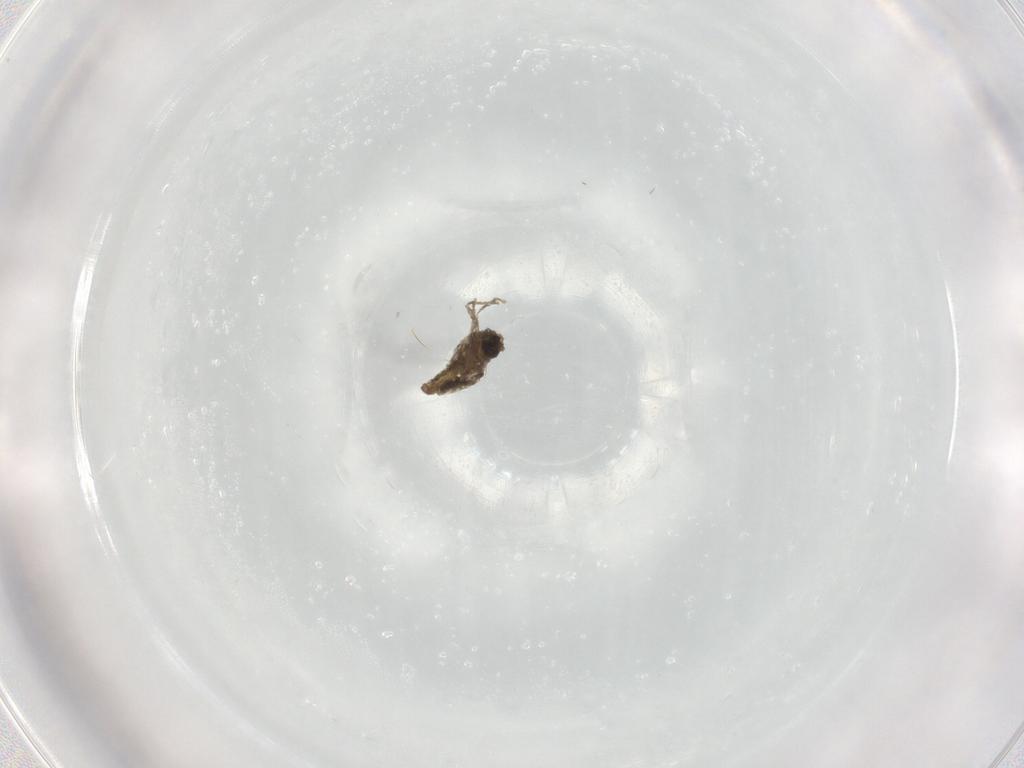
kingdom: Animalia
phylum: Arthropoda
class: Insecta
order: Diptera
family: Cecidomyiidae
